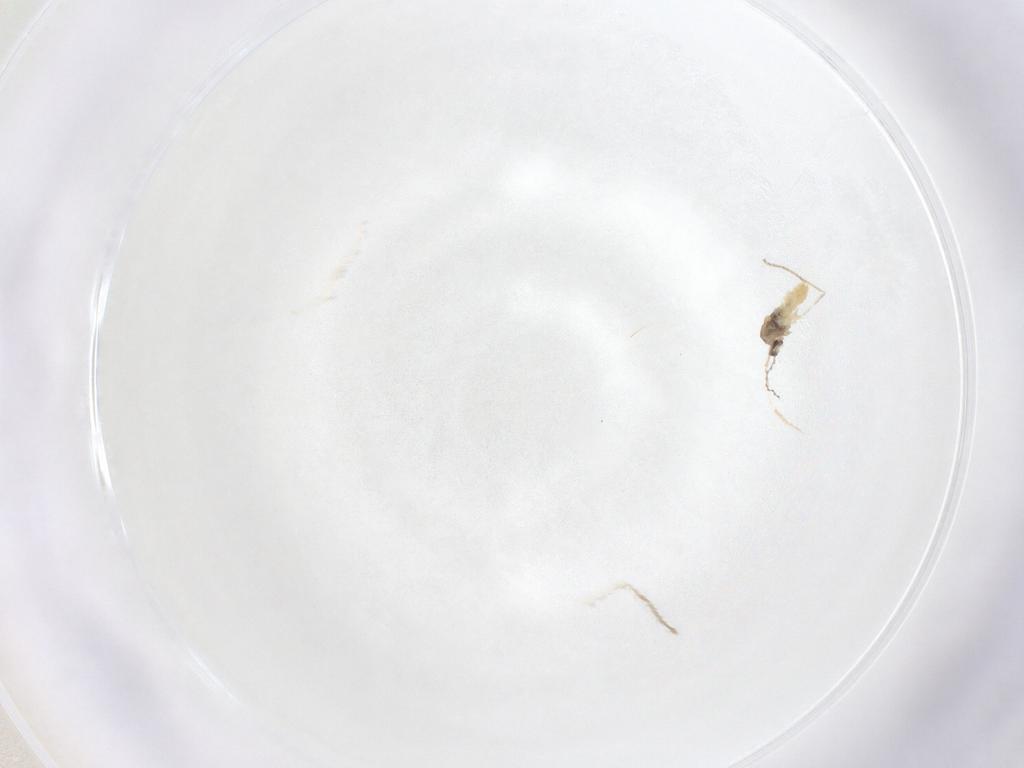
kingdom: Animalia
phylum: Arthropoda
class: Insecta
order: Diptera
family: Cecidomyiidae
